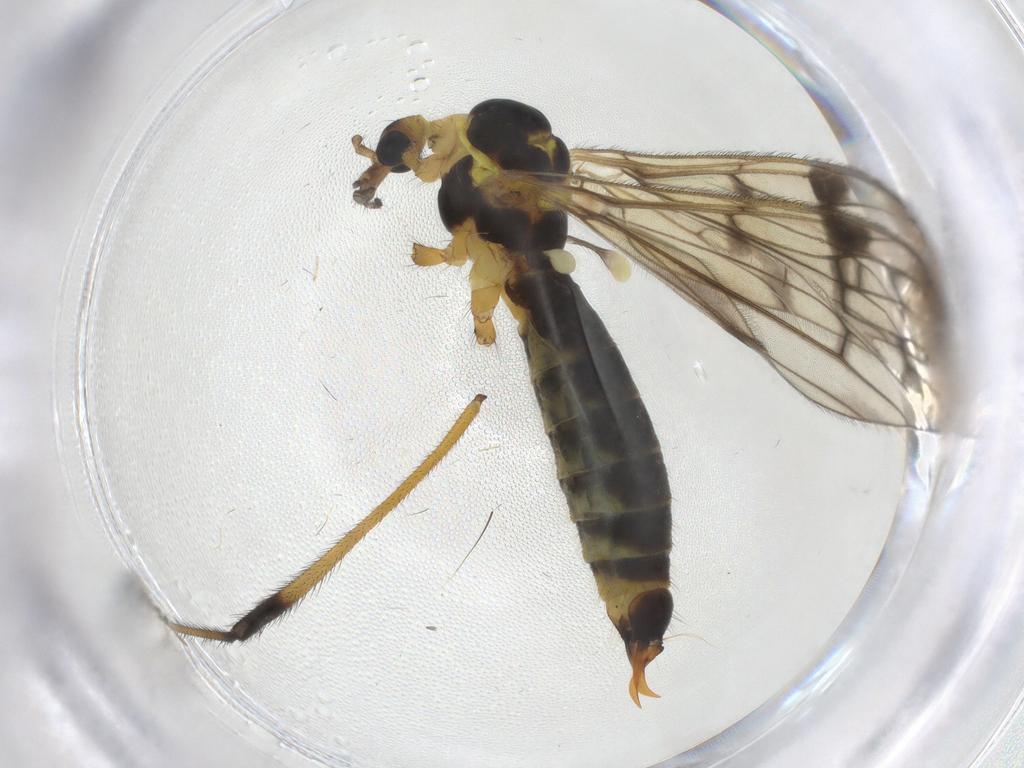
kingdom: Animalia
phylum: Arthropoda
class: Insecta
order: Diptera
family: Limoniidae
